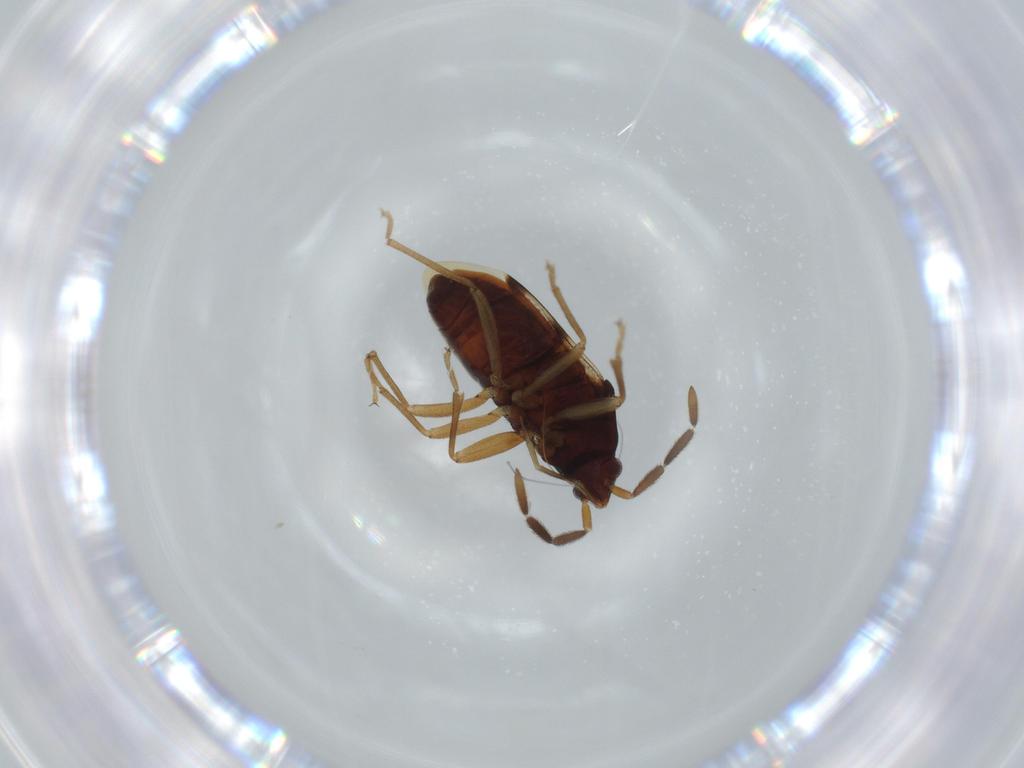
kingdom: Animalia
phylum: Arthropoda
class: Insecta
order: Hemiptera
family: Rhyparochromidae
